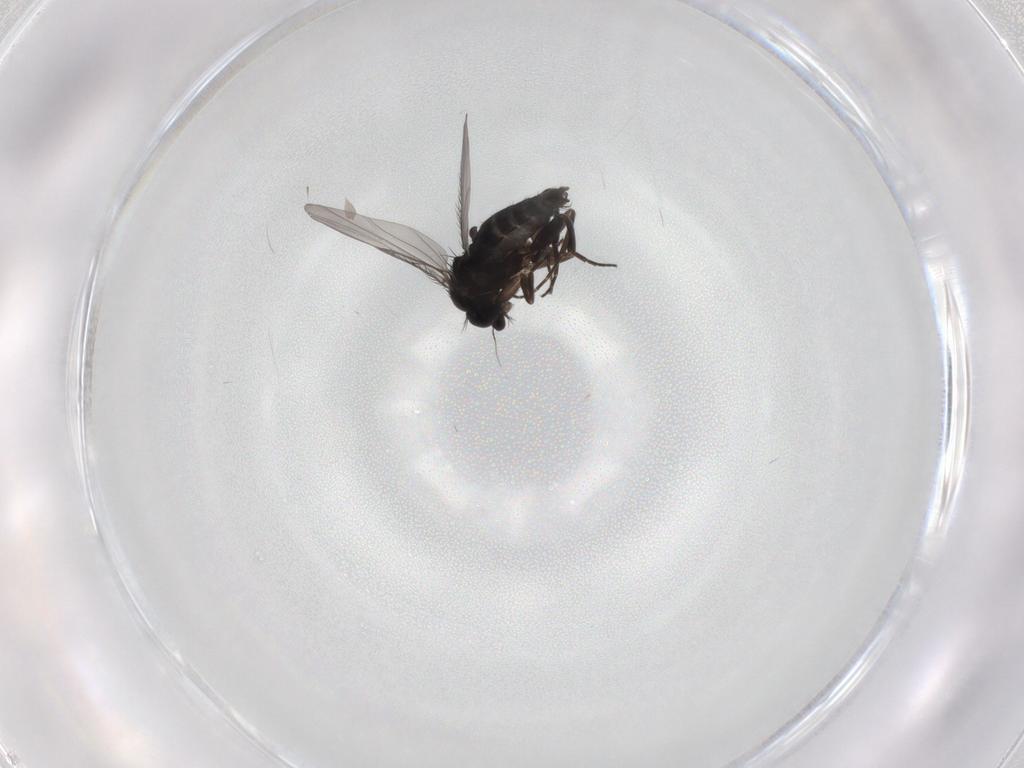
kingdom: Animalia
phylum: Arthropoda
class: Insecta
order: Diptera
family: Phoridae
